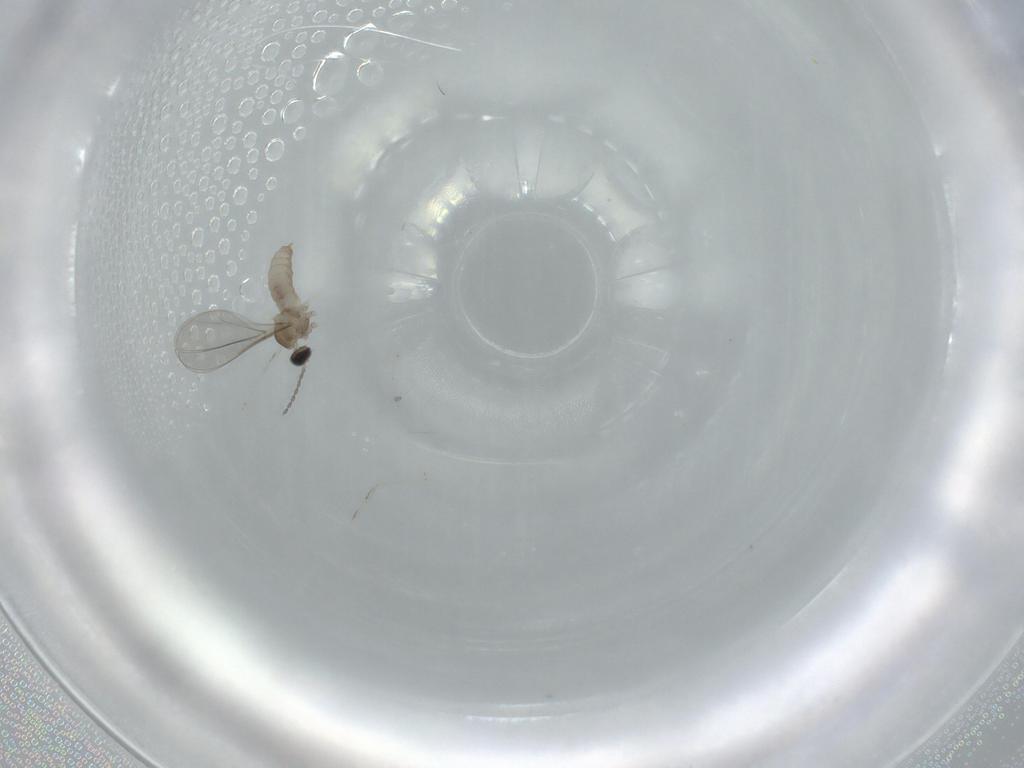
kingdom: Animalia
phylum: Arthropoda
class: Insecta
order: Diptera
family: Cecidomyiidae
